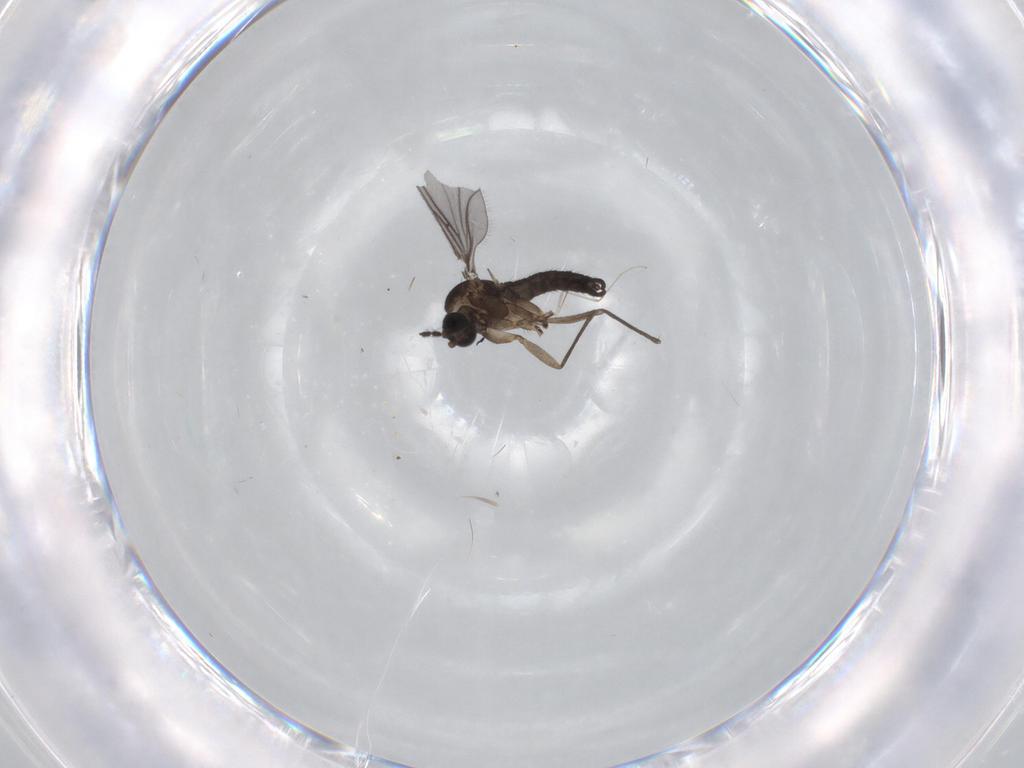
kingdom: Animalia
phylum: Arthropoda
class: Insecta
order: Diptera
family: Sciaridae
